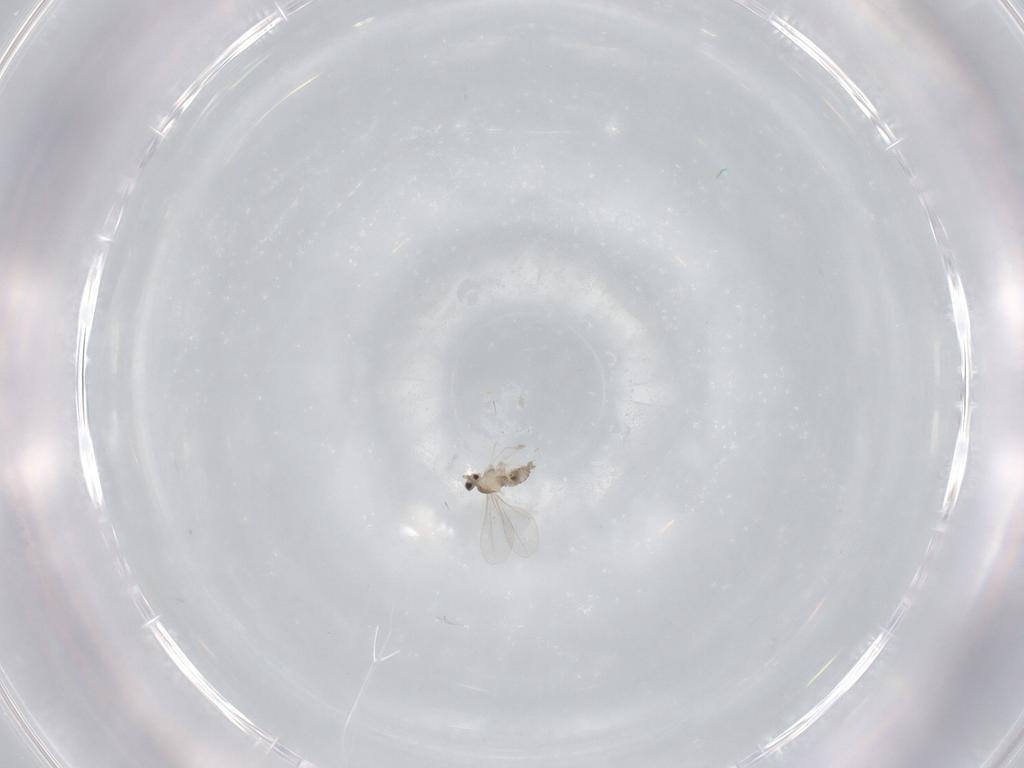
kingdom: Animalia
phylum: Arthropoda
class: Insecta
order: Diptera
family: Cecidomyiidae
